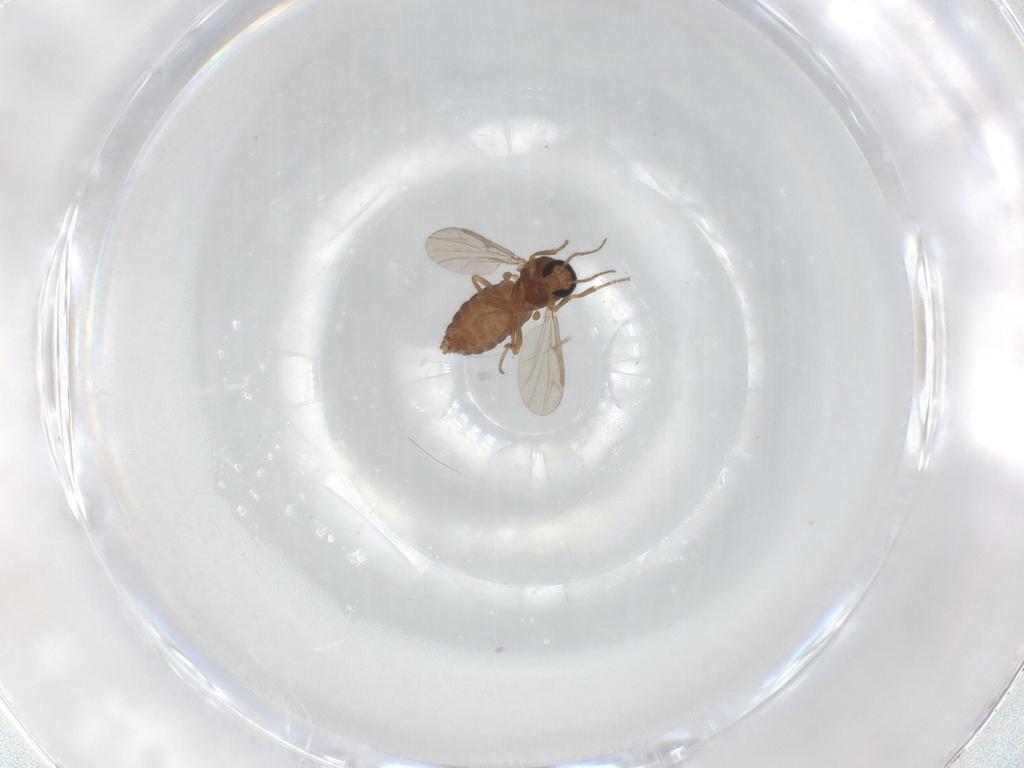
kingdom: Animalia
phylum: Arthropoda
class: Insecta
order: Diptera
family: Ceratopogonidae
